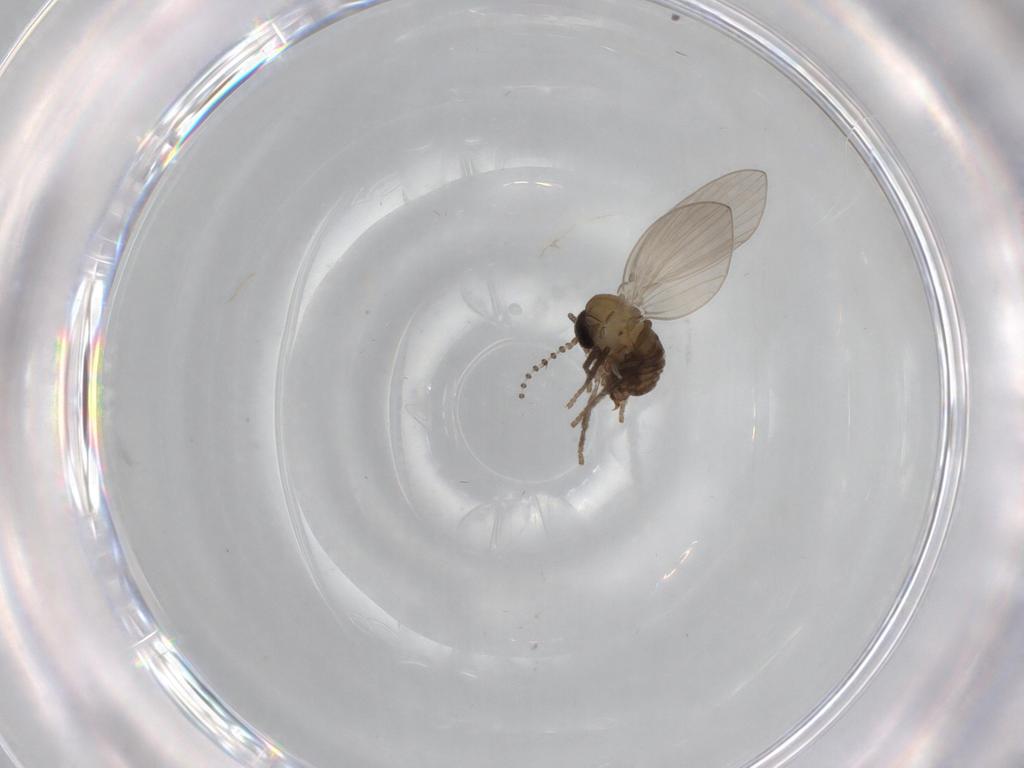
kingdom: Animalia
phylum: Arthropoda
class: Insecta
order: Diptera
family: Psychodidae
